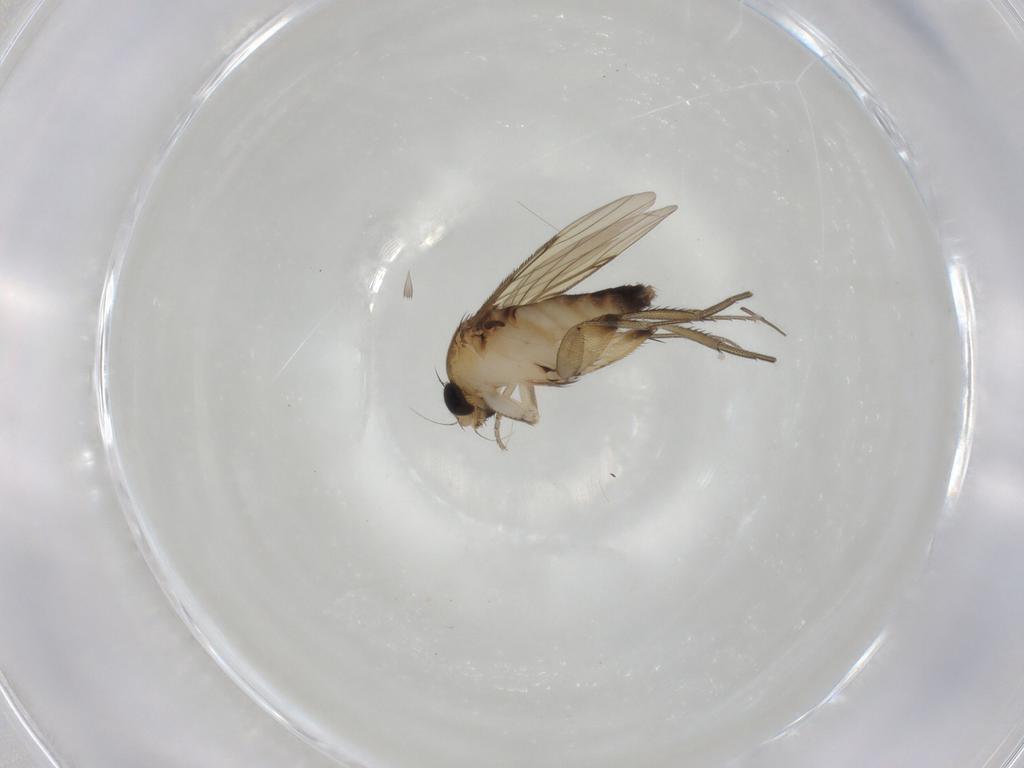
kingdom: Animalia
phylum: Arthropoda
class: Insecta
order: Diptera
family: Phoridae
